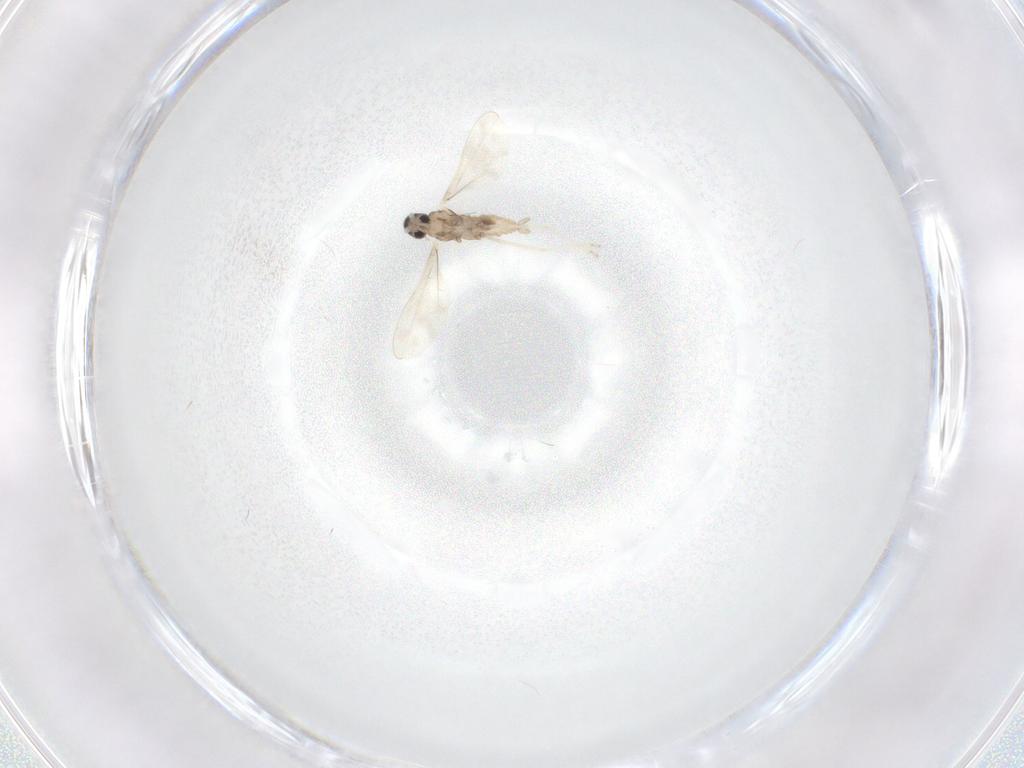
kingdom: Animalia
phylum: Arthropoda
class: Insecta
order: Diptera
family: Cecidomyiidae
